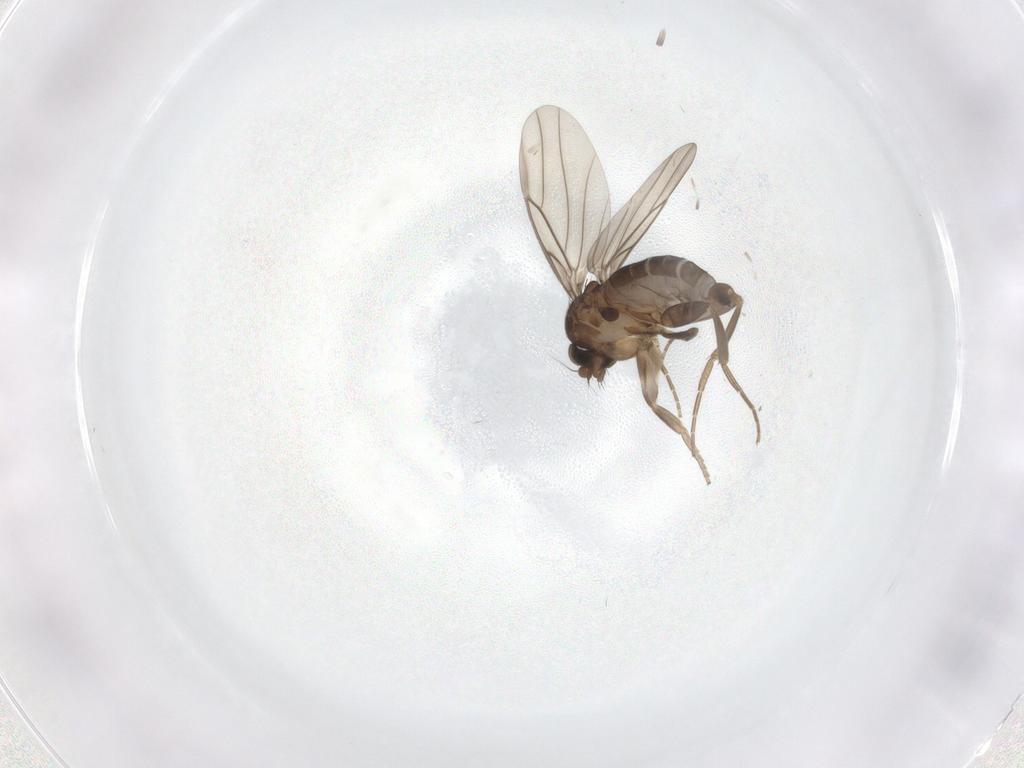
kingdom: Animalia
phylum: Arthropoda
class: Insecta
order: Diptera
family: Phoridae
